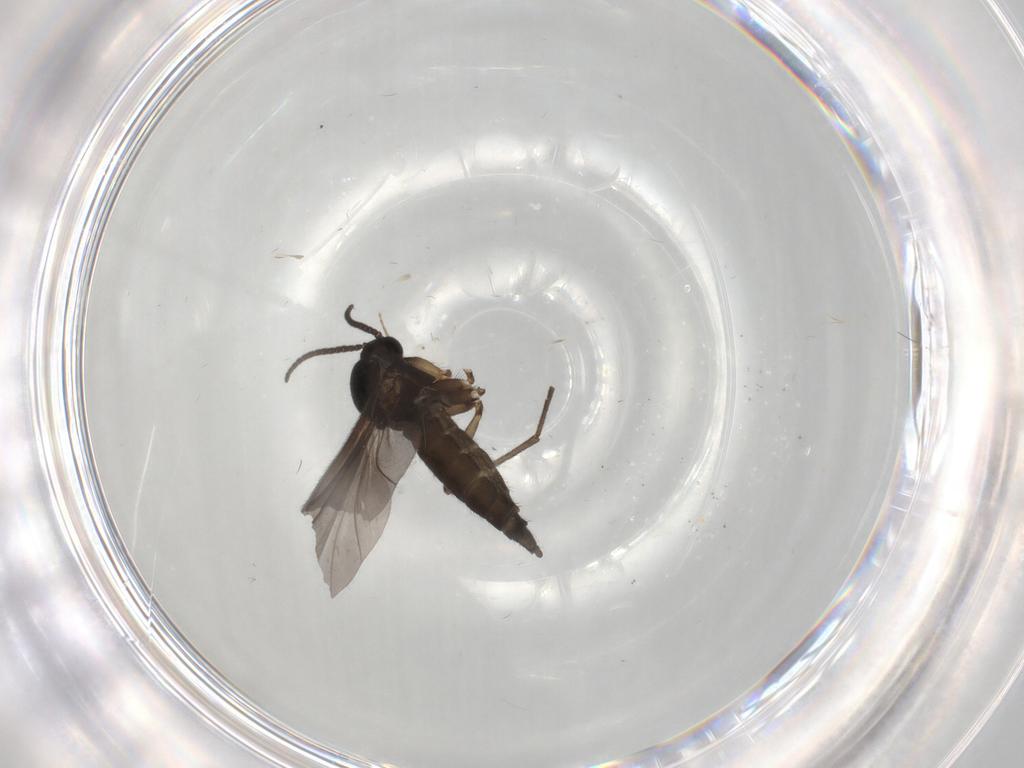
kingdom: Animalia
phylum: Arthropoda
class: Insecta
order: Diptera
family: Sciaridae
